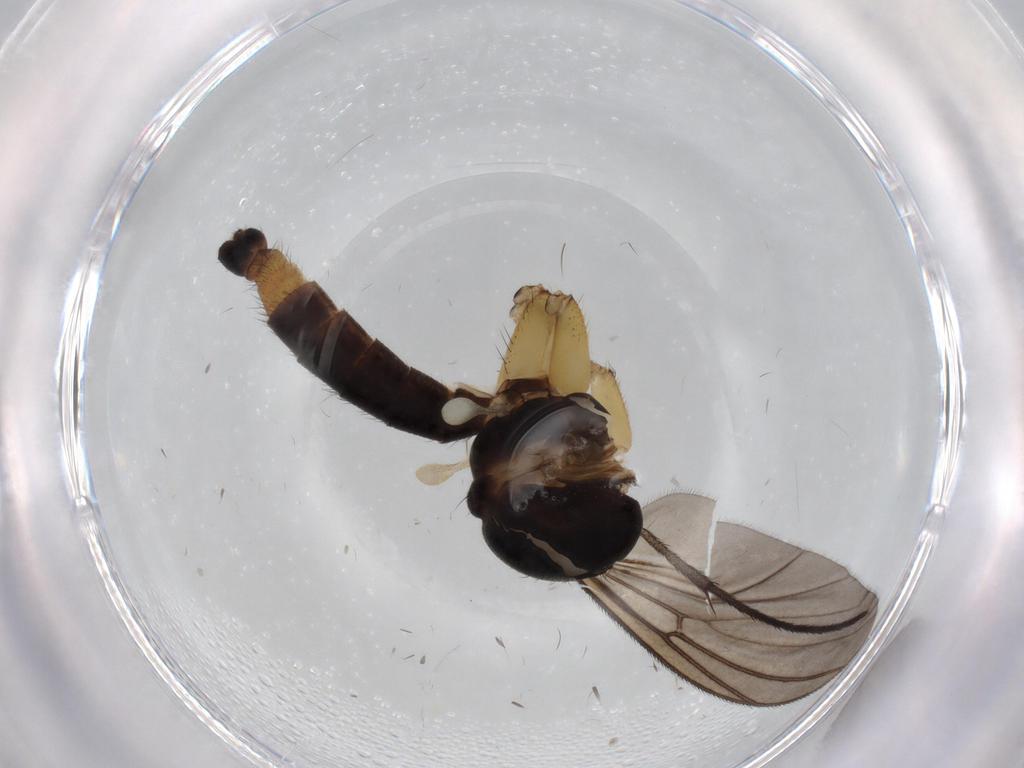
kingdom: Animalia
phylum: Arthropoda
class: Insecta
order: Diptera
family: Mycetophilidae
